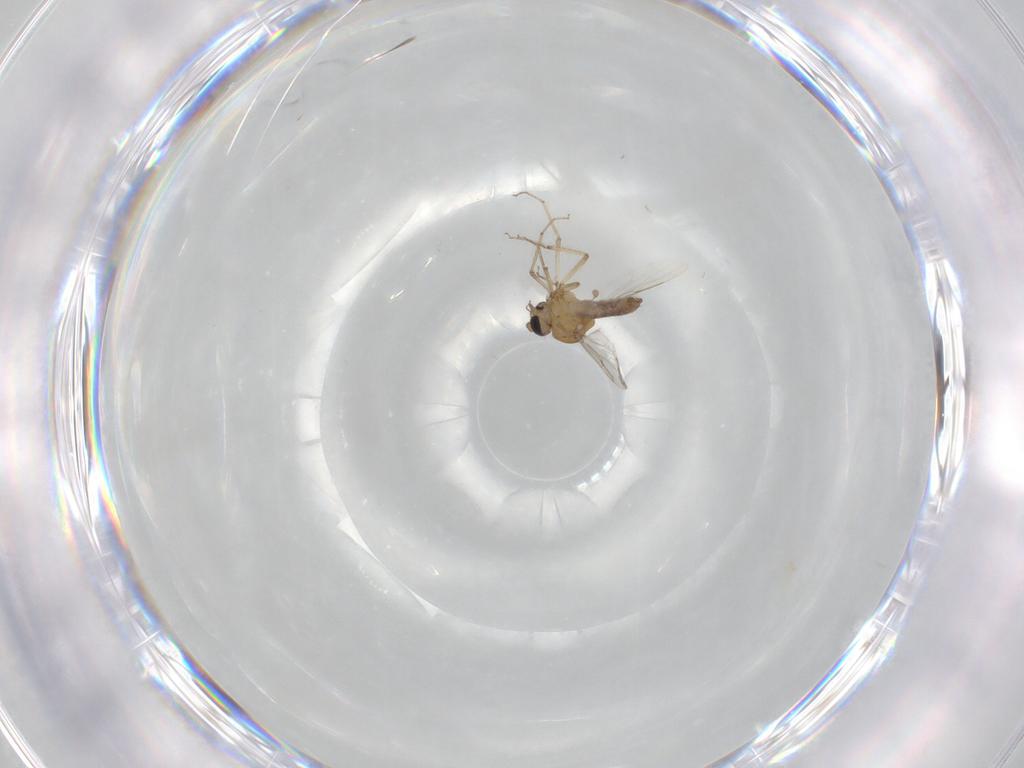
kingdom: Animalia
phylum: Arthropoda
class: Insecta
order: Diptera
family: Ceratopogonidae
